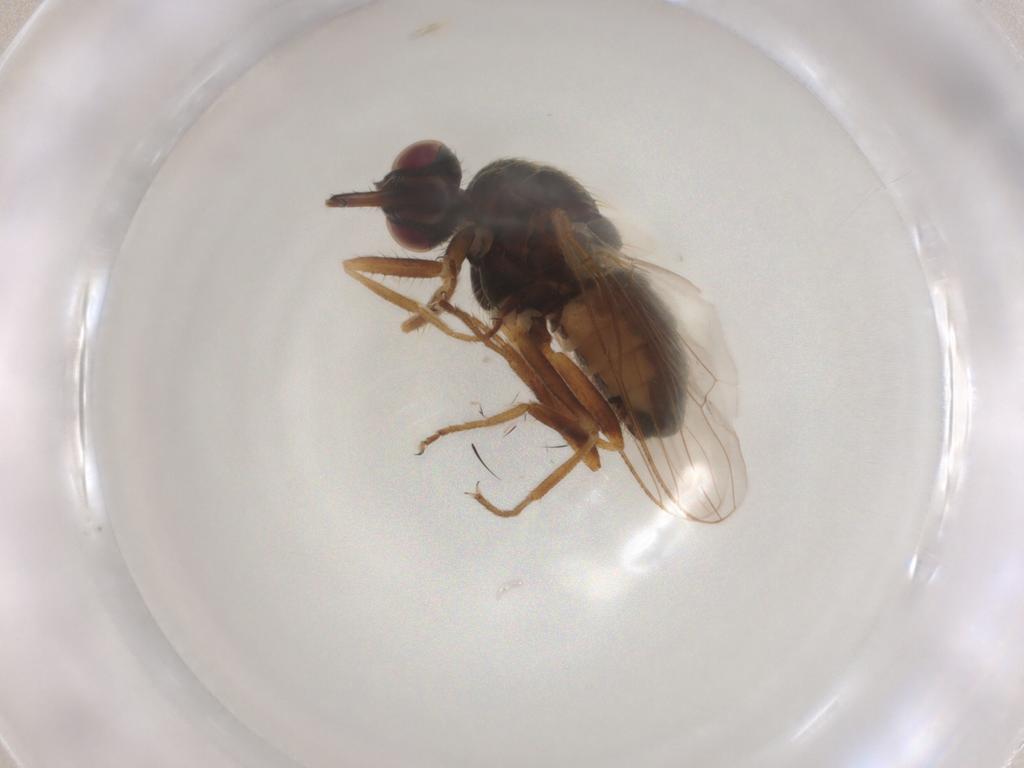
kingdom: Animalia
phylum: Arthropoda
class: Insecta
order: Diptera
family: Muscidae
